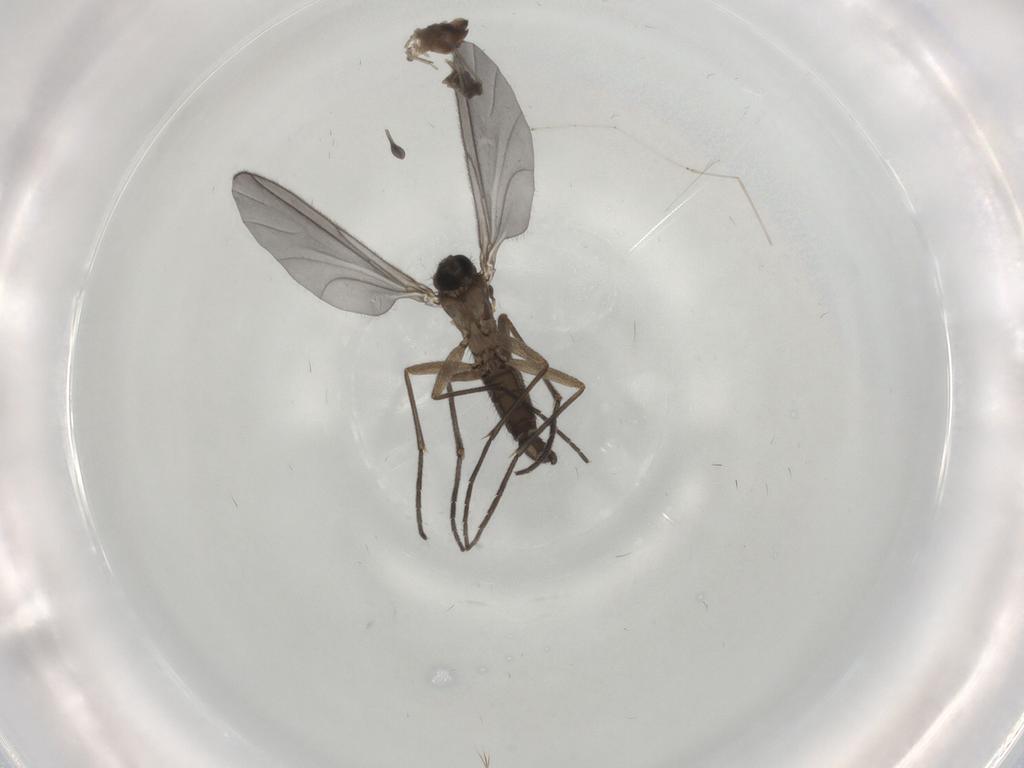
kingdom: Animalia
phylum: Arthropoda
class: Insecta
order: Diptera
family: Sciaridae
